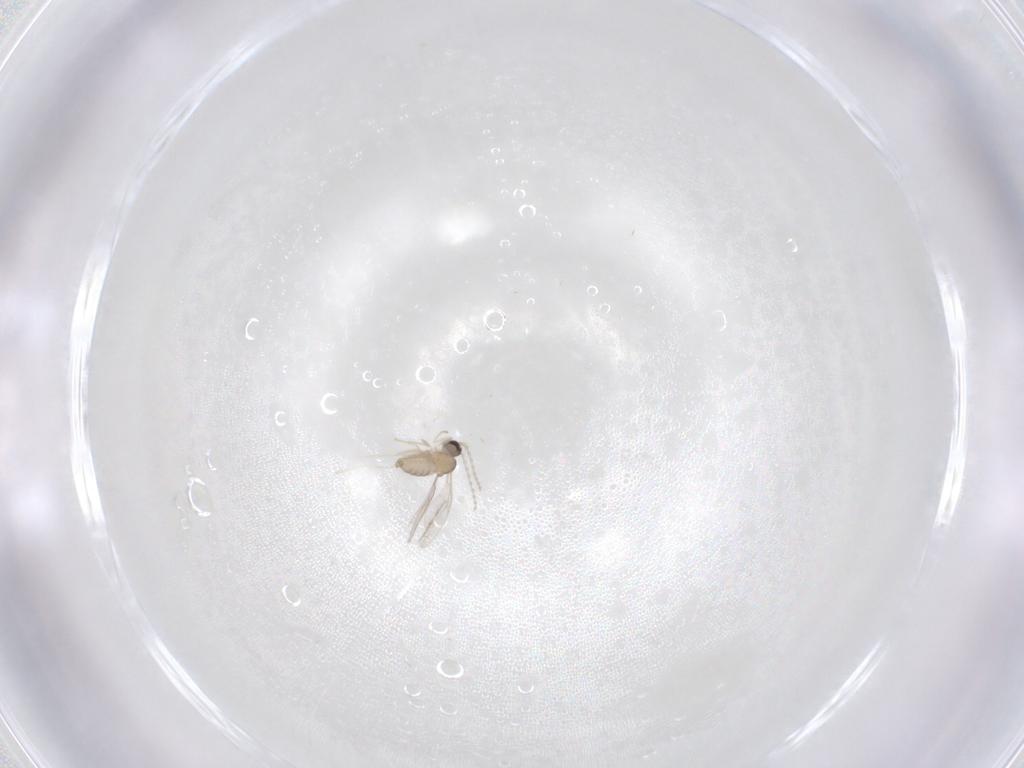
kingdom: Animalia
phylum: Arthropoda
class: Insecta
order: Diptera
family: Cecidomyiidae
